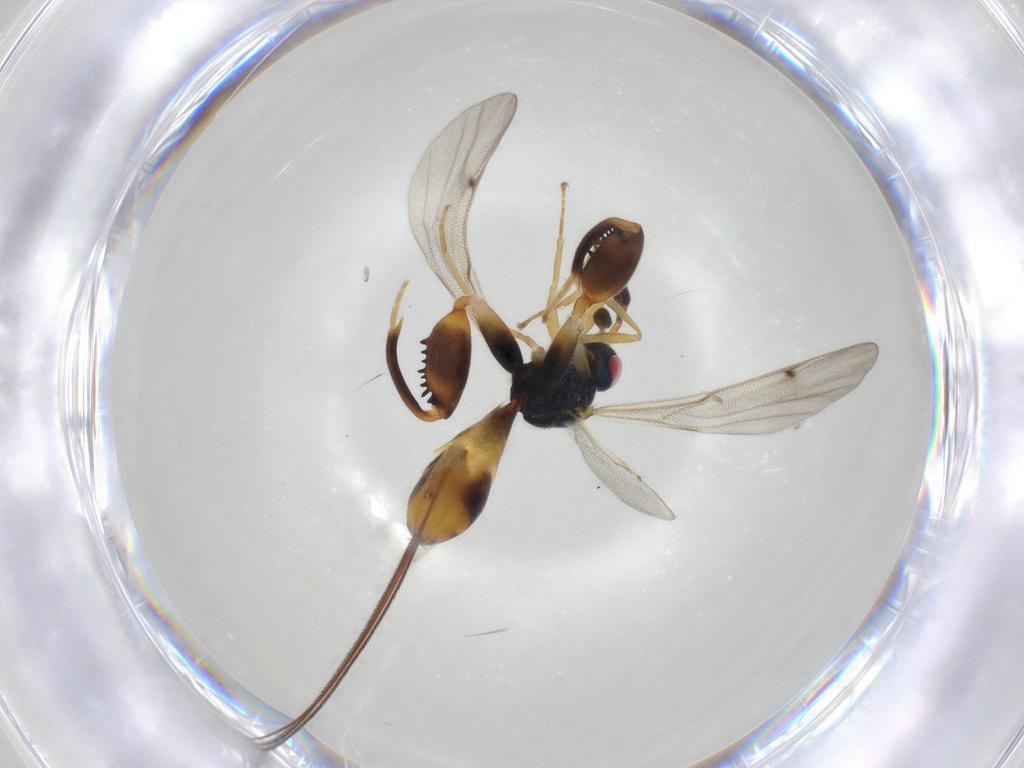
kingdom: Animalia
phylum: Arthropoda
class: Insecta
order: Hymenoptera
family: Torymidae
